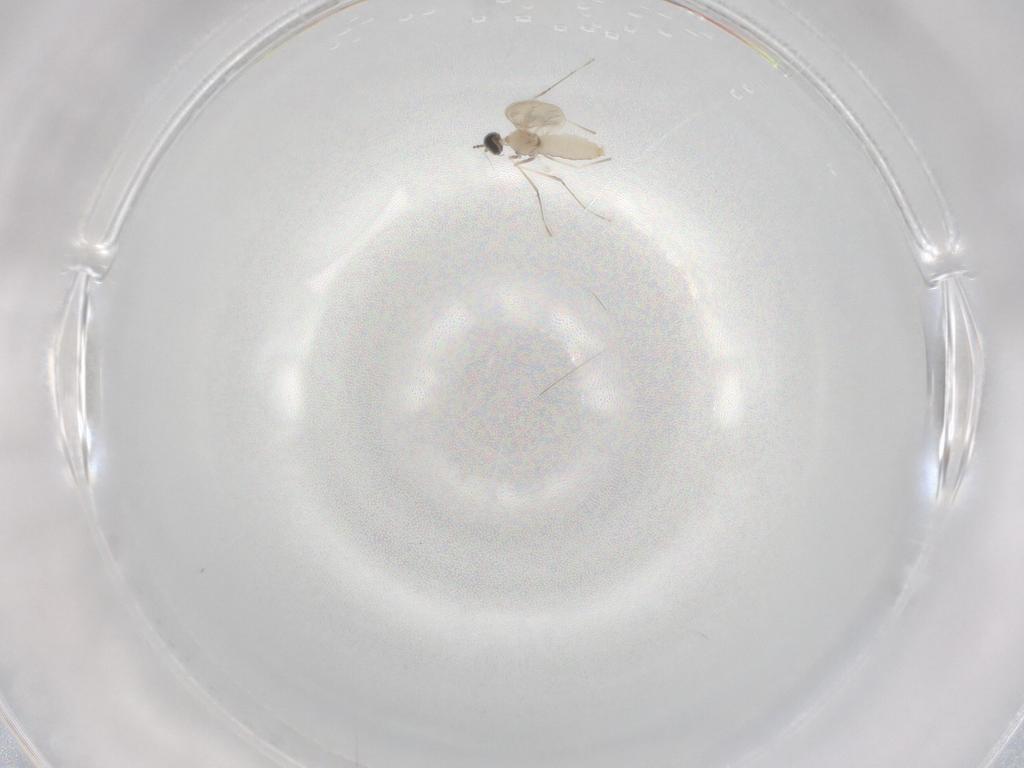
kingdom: Animalia
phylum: Arthropoda
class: Insecta
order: Diptera
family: Cecidomyiidae
